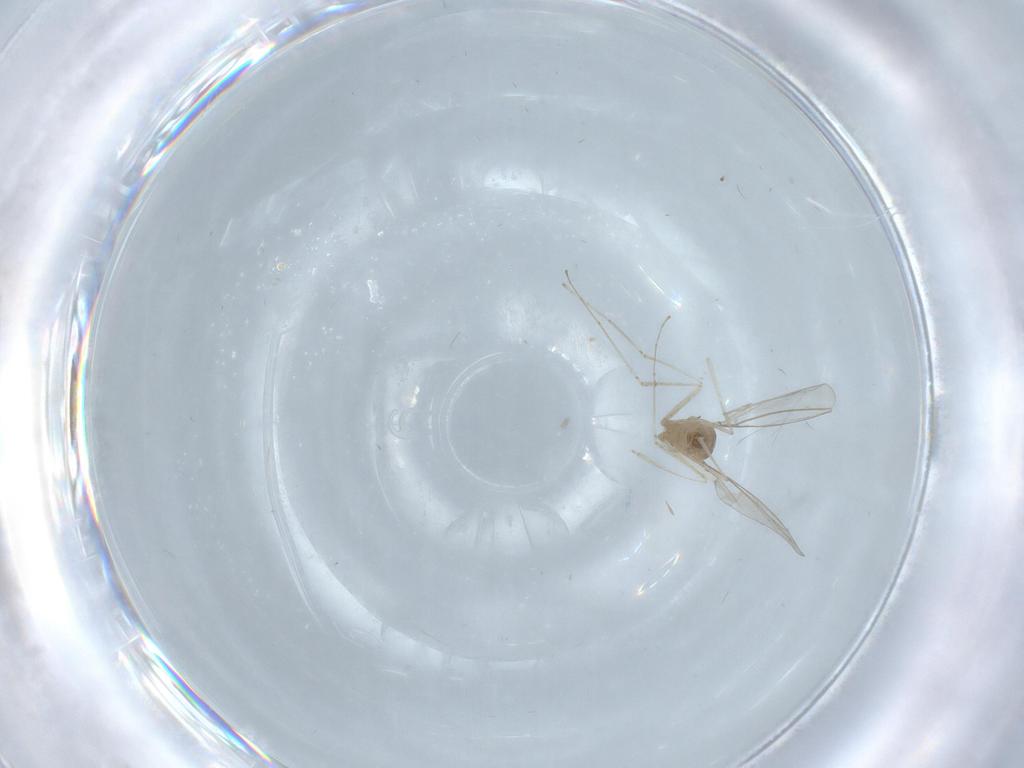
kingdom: Animalia
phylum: Arthropoda
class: Insecta
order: Diptera
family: Cecidomyiidae
